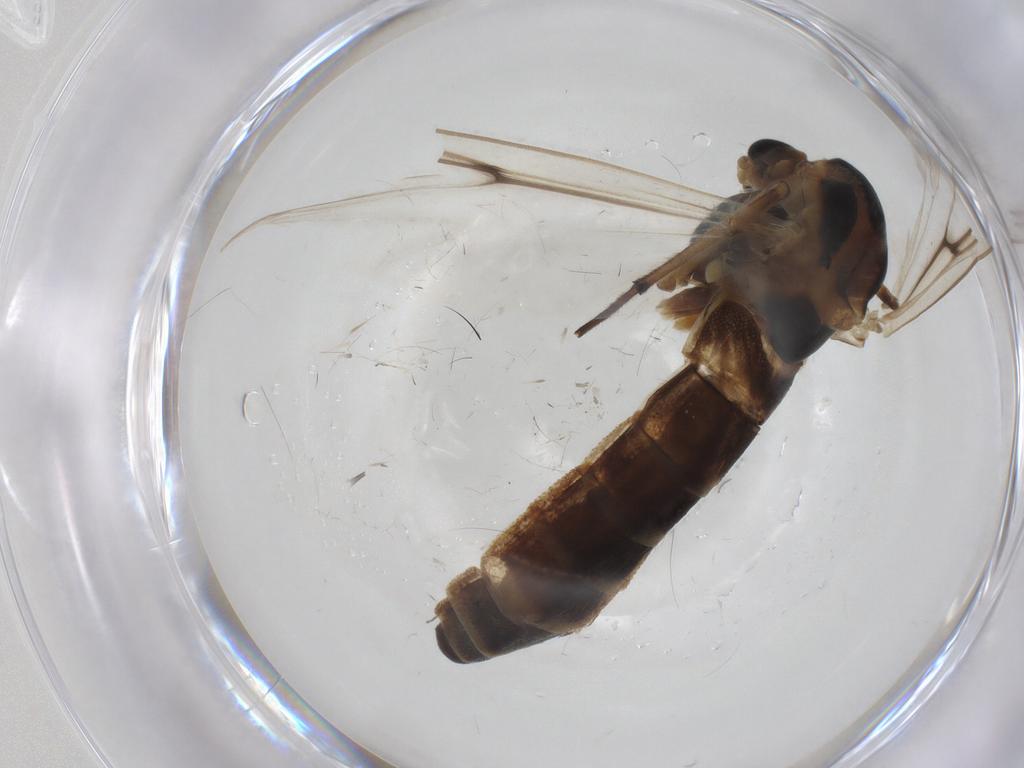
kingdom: Animalia
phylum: Arthropoda
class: Insecta
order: Diptera
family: Chironomidae
